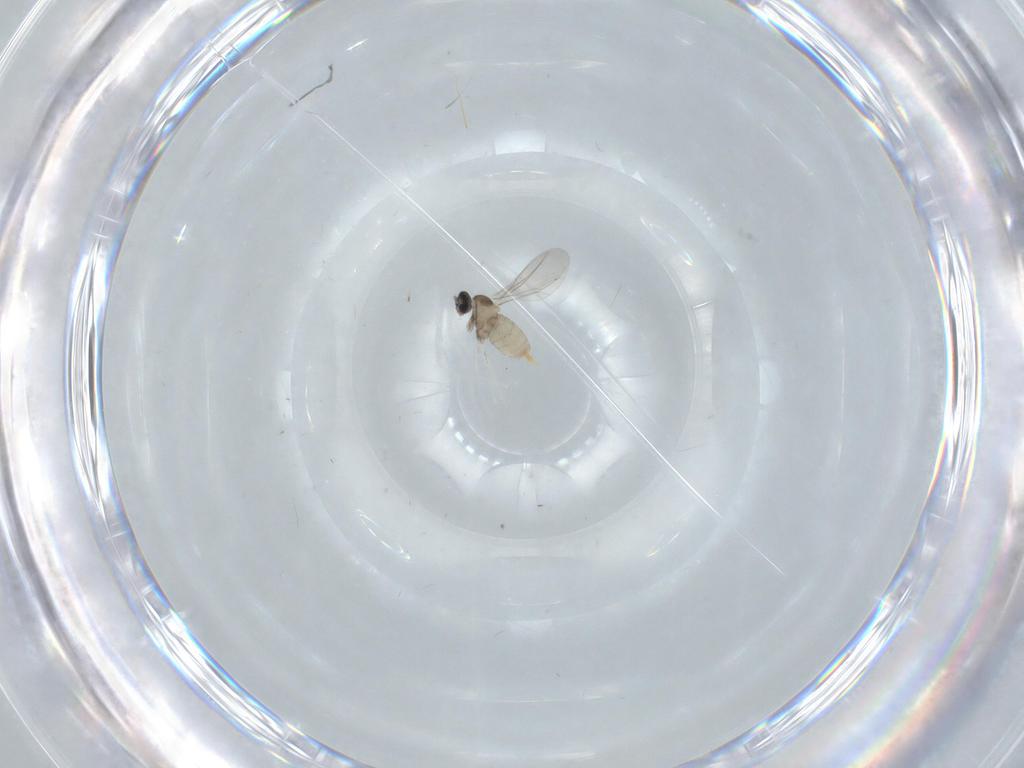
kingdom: Animalia
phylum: Arthropoda
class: Insecta
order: Diptera
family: Cecidomyiidae
